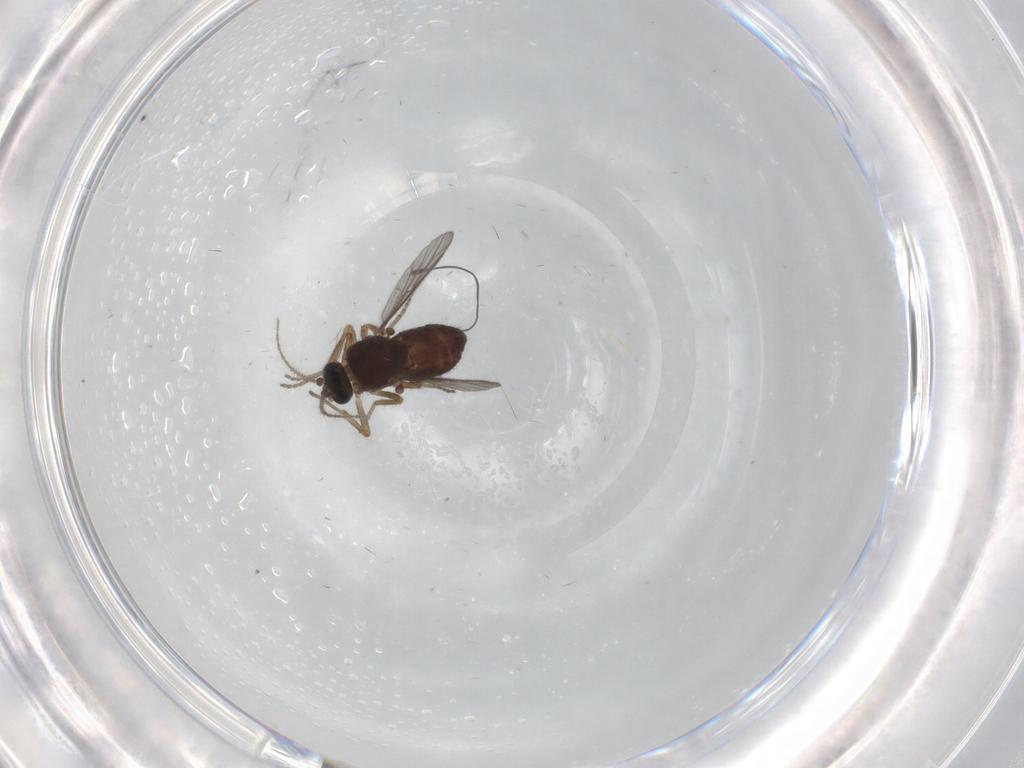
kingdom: Animalia
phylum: Arthropoda
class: Insecta
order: Diptera
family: Ceratopogonidae
